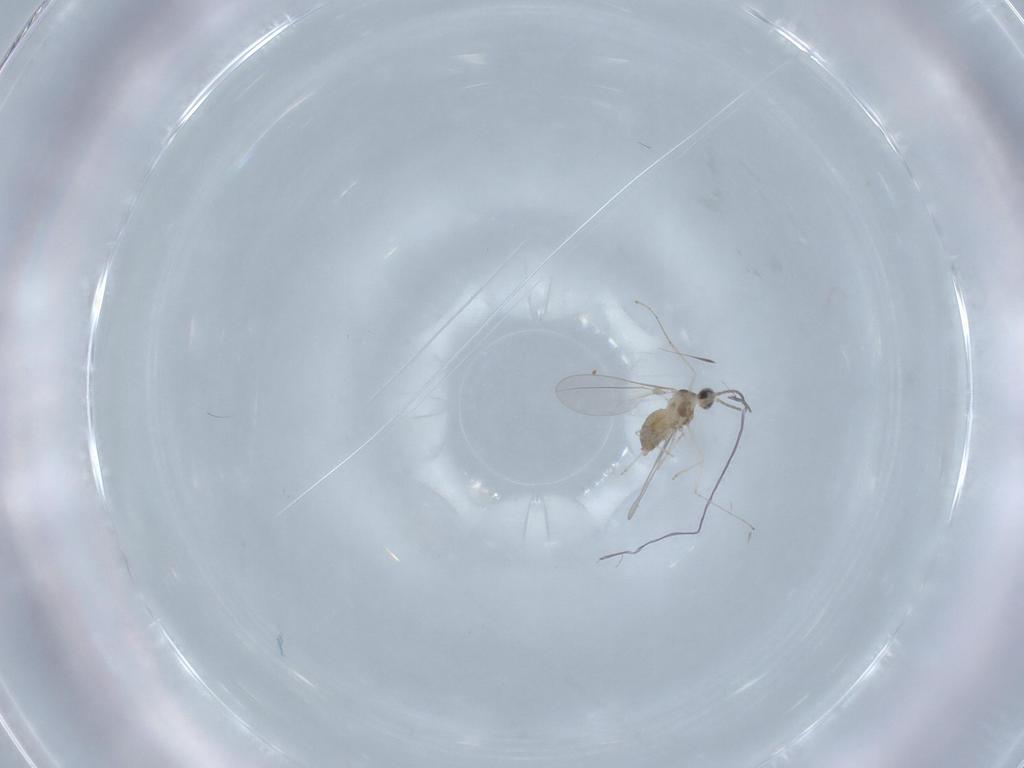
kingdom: Animalia
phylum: Arthropoda
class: Insecta
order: Diptera
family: Cecidomyiidae
